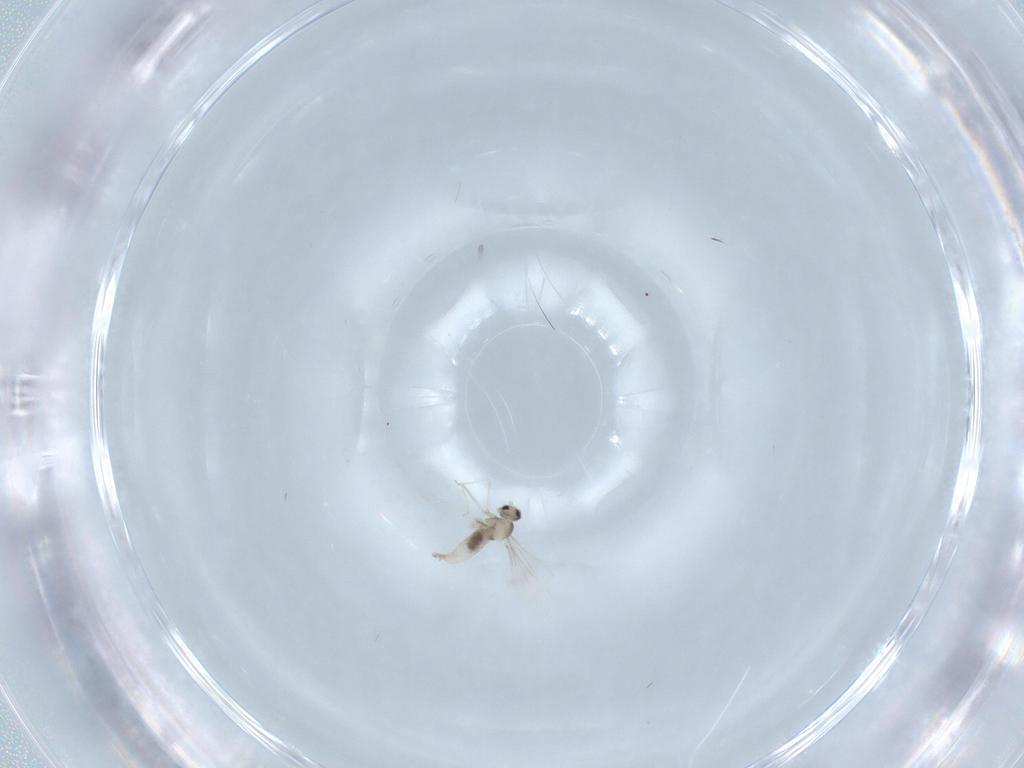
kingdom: Animalia
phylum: Arthropoda
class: Insecta
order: Diptera
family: Cecidomyiidae
